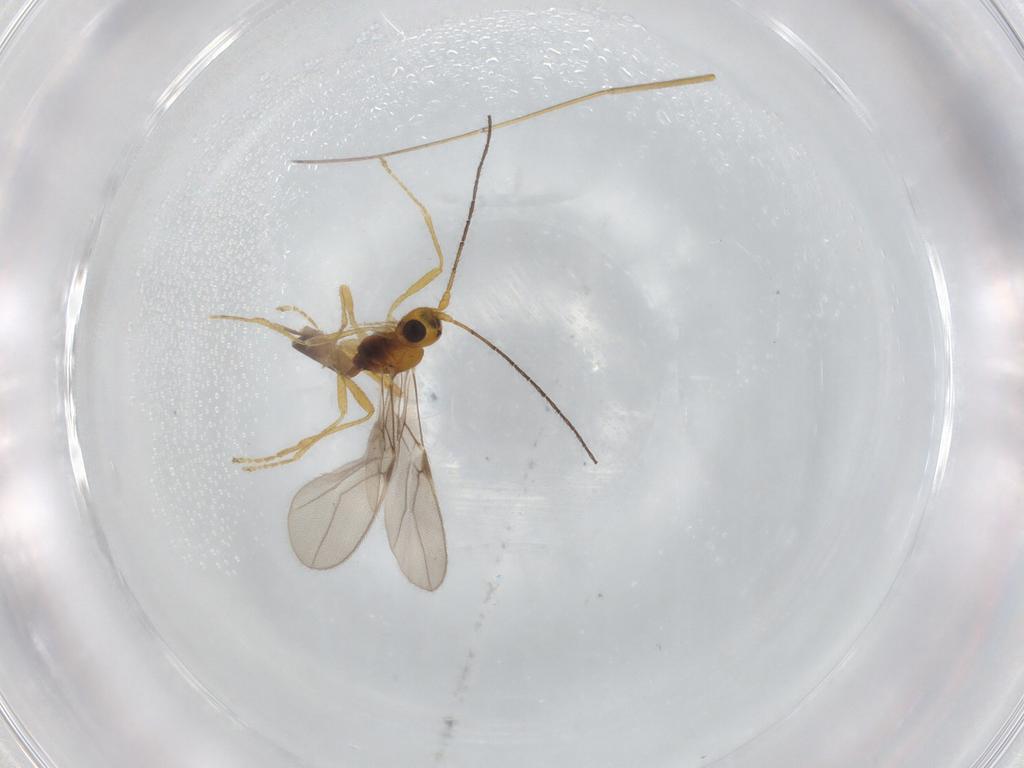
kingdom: Animalia
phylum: Arthropoda
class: Insecta
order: Hymenoptera
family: Braconidae
